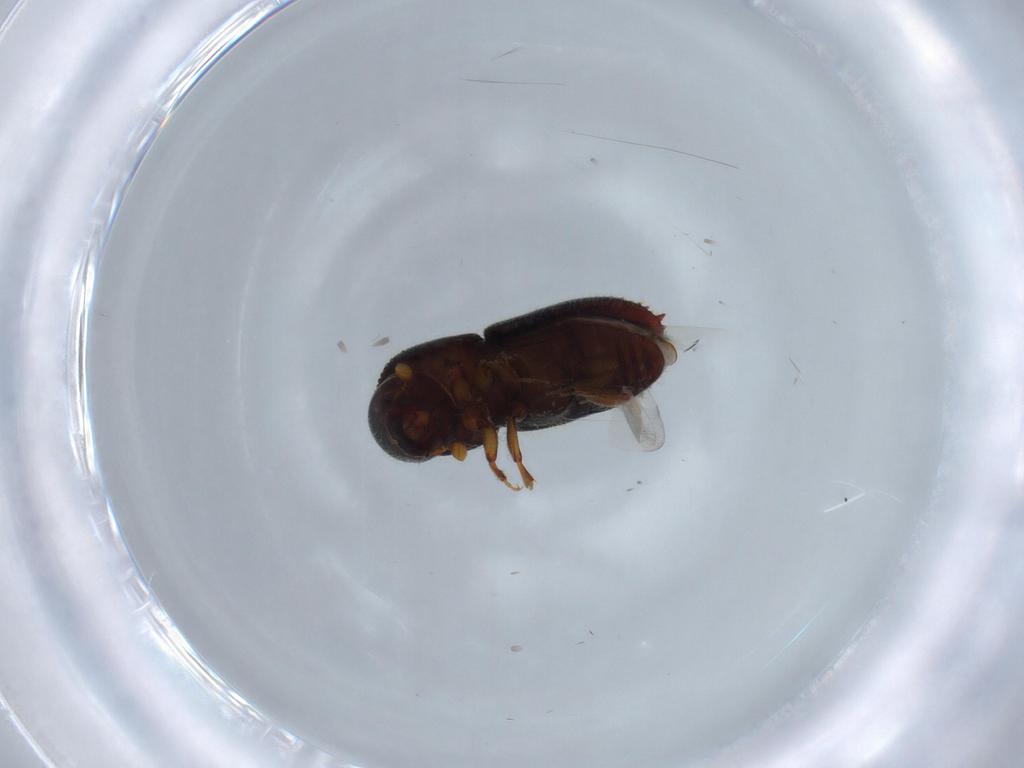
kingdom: Animalia
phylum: Arthropoda
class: Insecta
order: Coleoptera
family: Curculionidae
